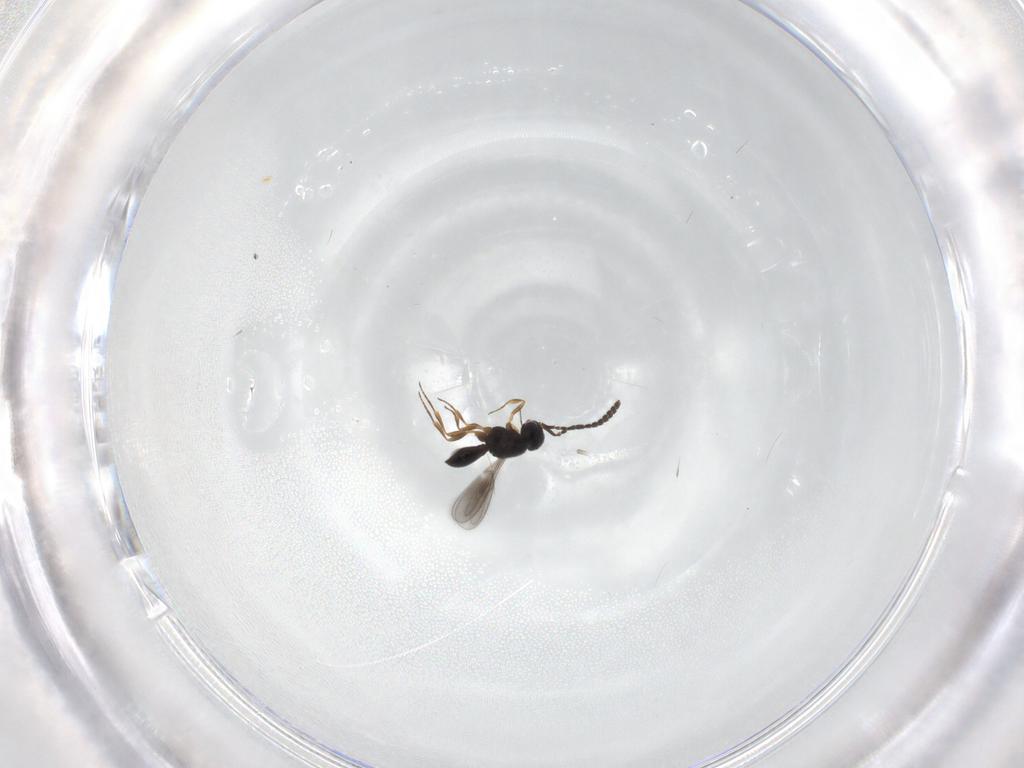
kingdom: Animalia
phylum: Arthropoda
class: Insecta
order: Hymenoptera
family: Scelionidae
